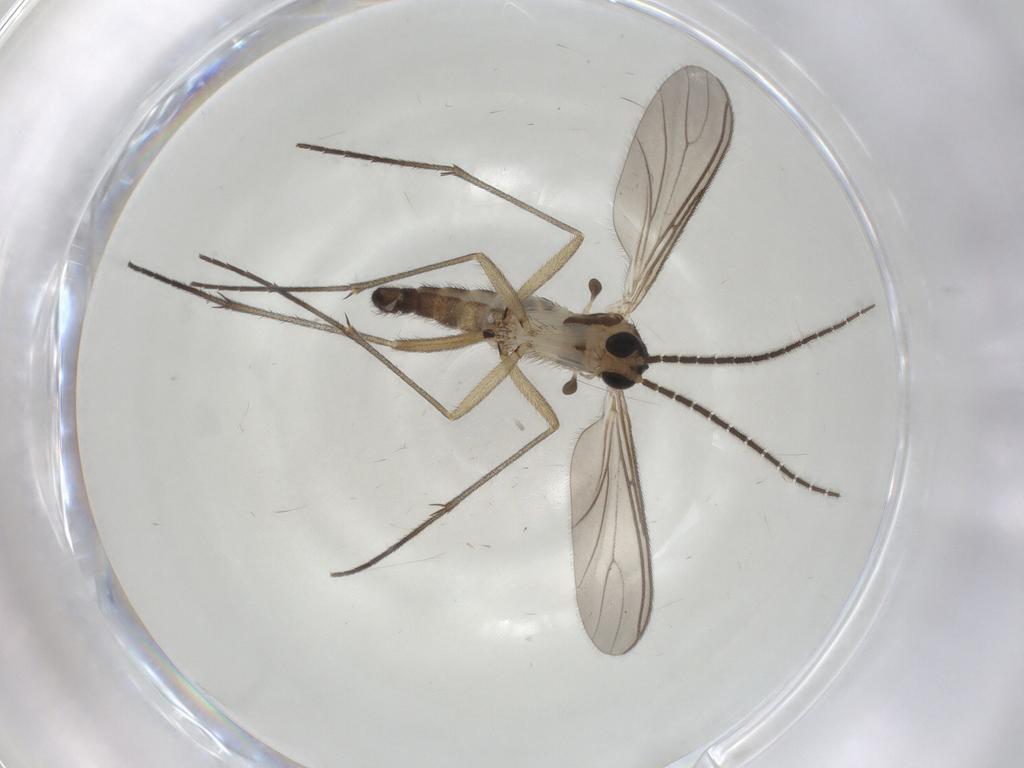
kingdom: Animalia
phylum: Arthropoda
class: Insecta
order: Diptera
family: Sciaridae
